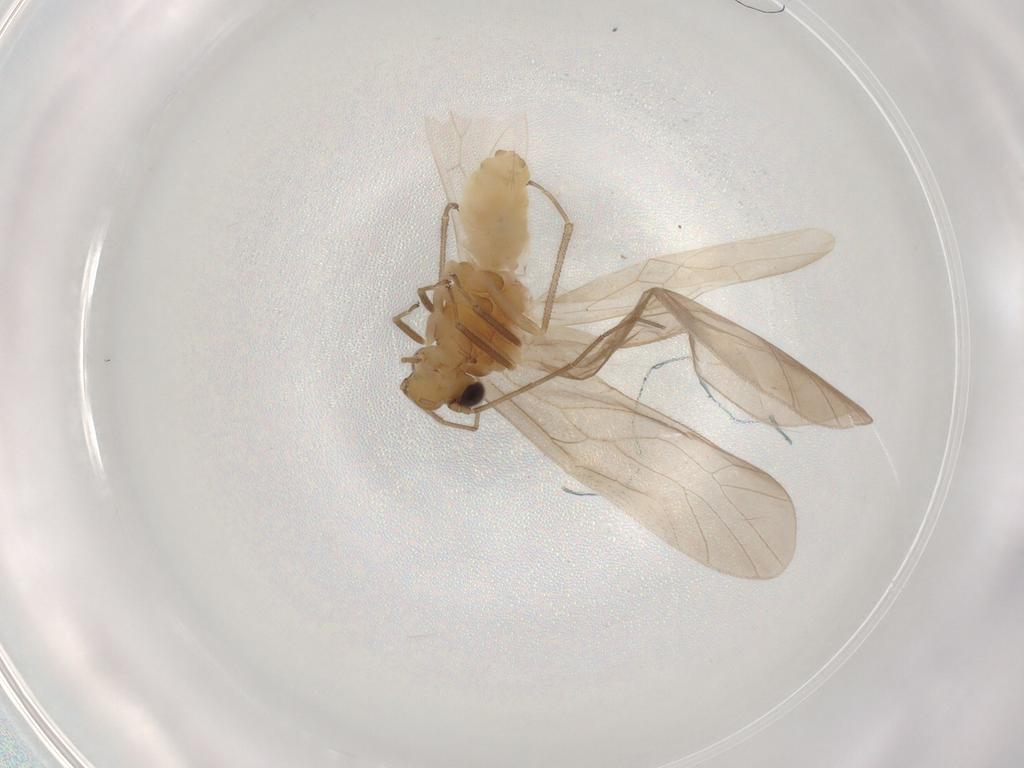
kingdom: Animalia
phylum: Arthropoda
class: Insecta
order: Psocodea
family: Caeciliusidae
